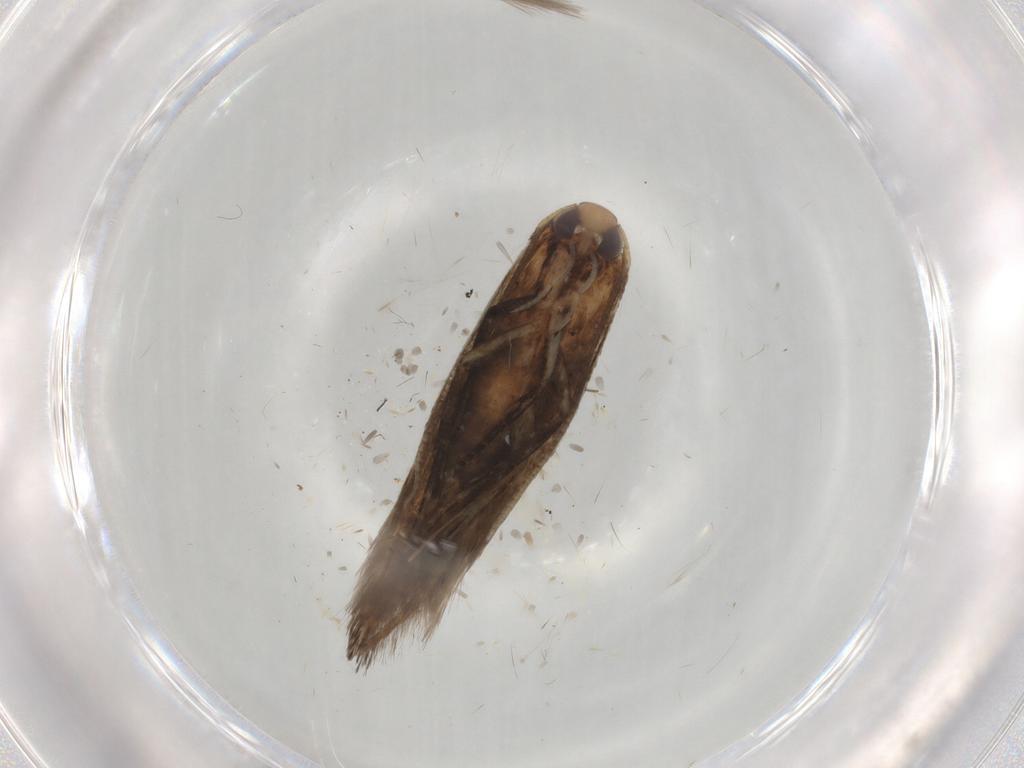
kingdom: Animalia
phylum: Arthropoda
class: Insecta
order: Lepidoptera
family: Cosmopterigidae
